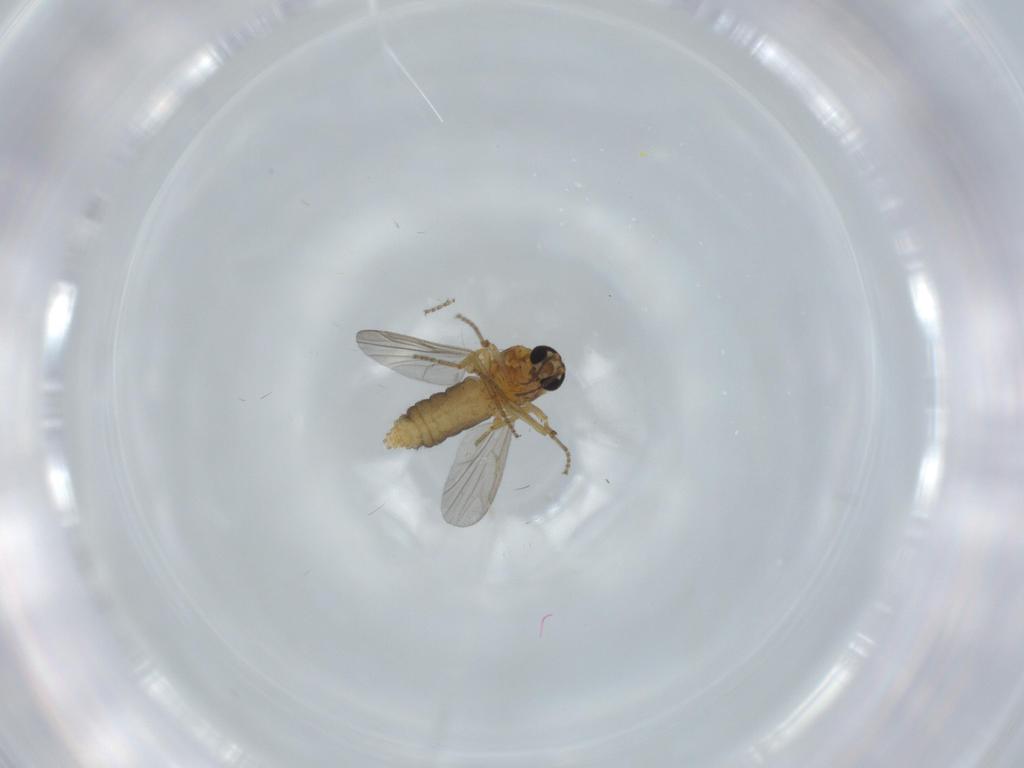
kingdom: Animalia
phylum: Arthropoda
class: Insecta
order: Diptera
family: Ceratopogonidae
